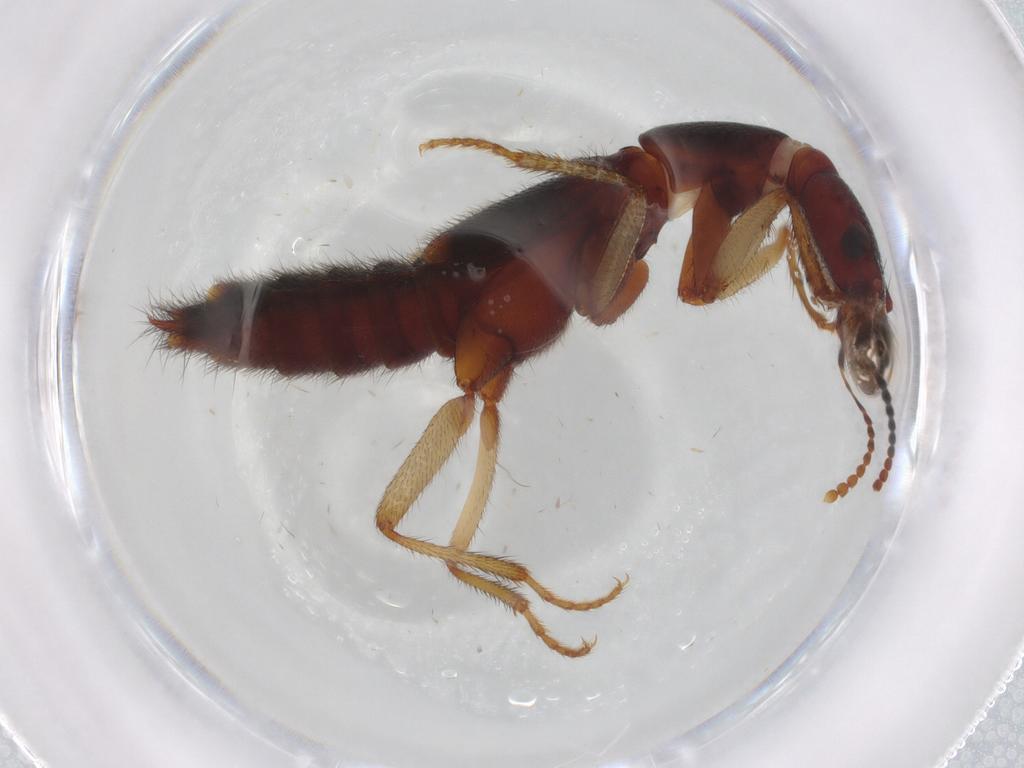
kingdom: Animalia
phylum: Arthropoda
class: Insecta
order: Coleoptera
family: Staphylinidae
